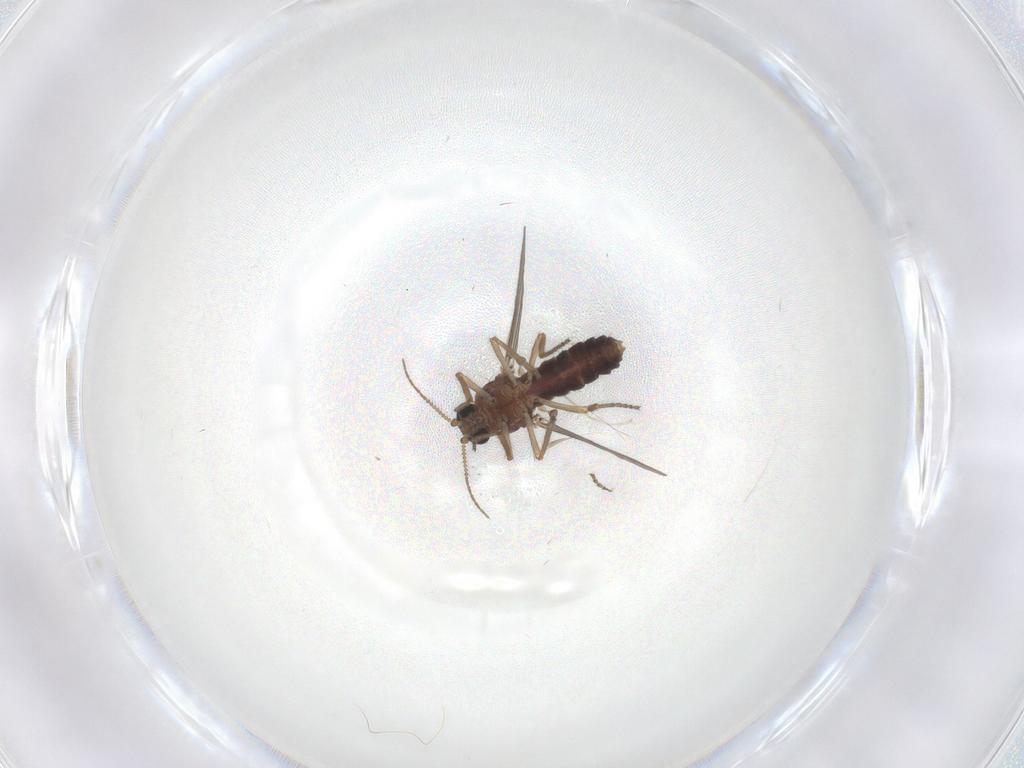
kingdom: Animalia
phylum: Arthropoda
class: Insecta
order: Diptera
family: Ceratopogonidae
